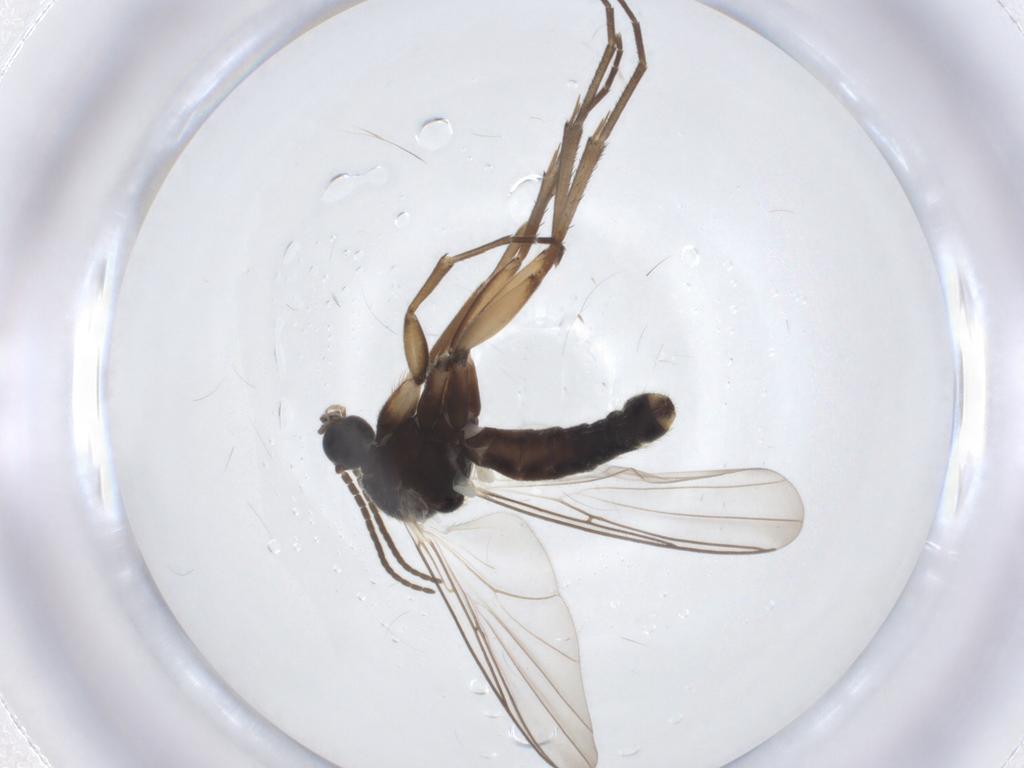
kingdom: Animalia
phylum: Arthropoda
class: Insecta
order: Diptera
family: Mycetophilidae
